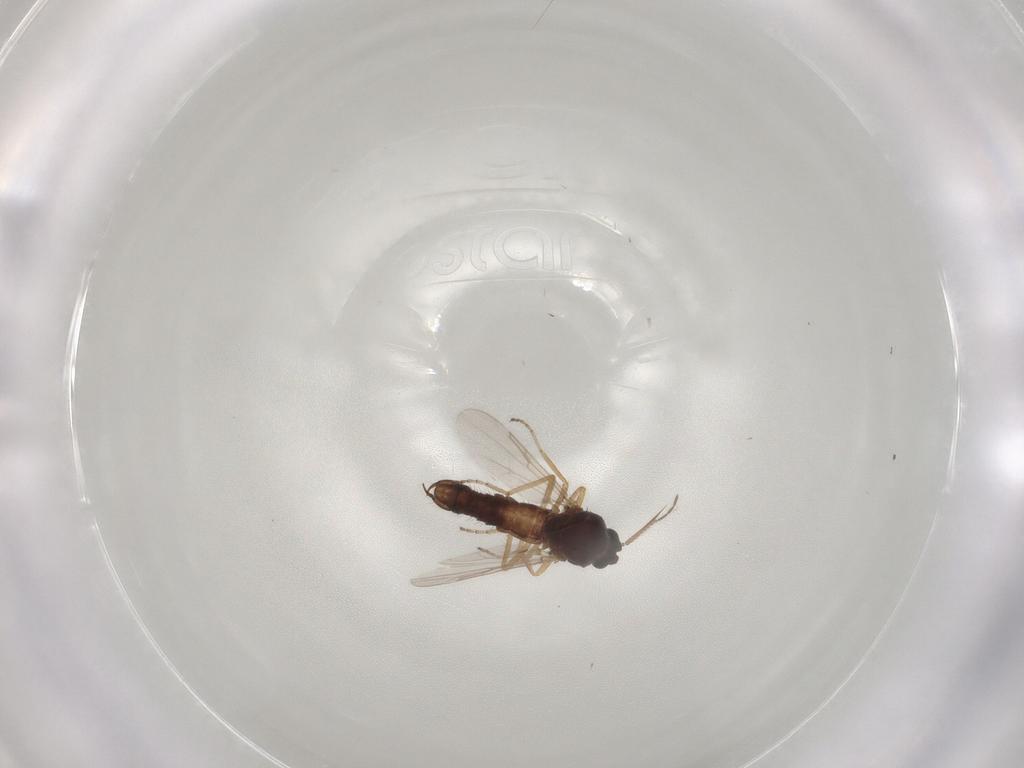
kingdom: Animalia
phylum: Arthropoda
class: Insecta
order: Diptera
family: Ceratopogonidae
